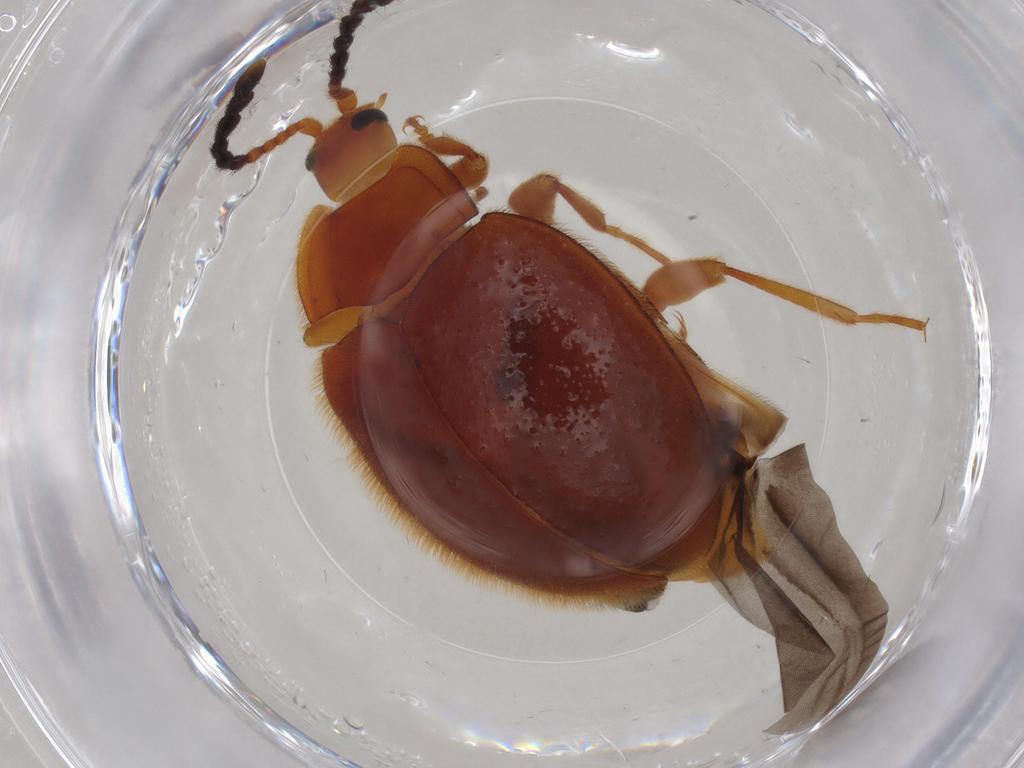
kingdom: Animalia
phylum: Arthropoda
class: Insecta
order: Coleoptera
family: Endomychidae
